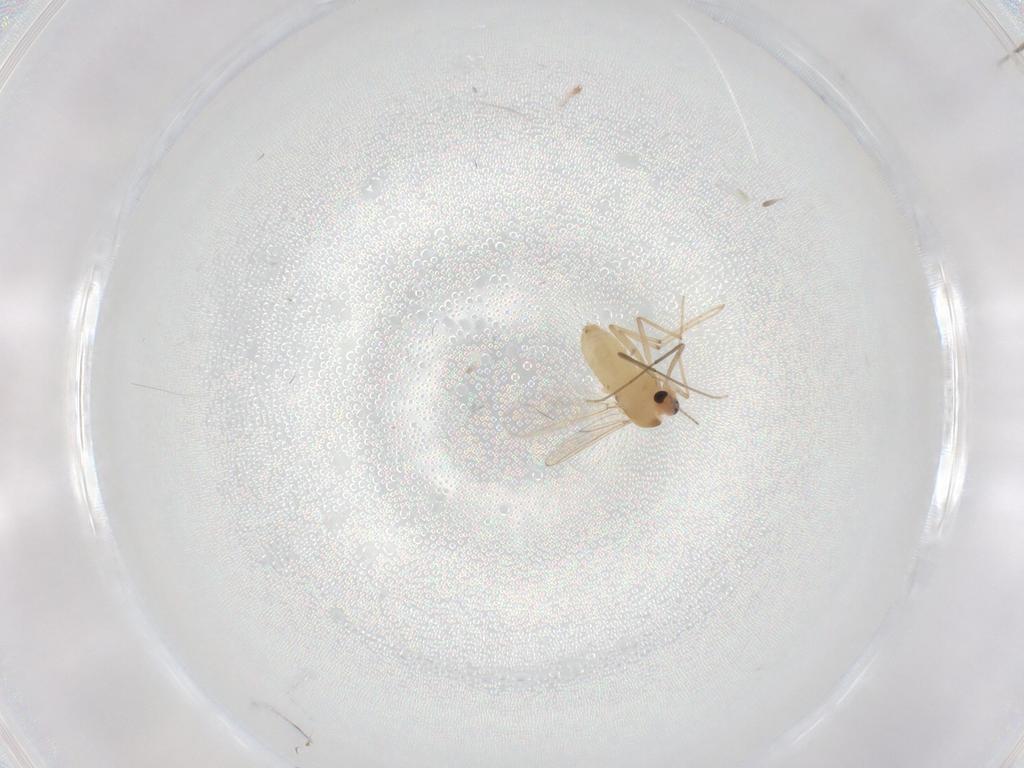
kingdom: Animalia
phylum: Arthropoda
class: Insecta
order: Diptera
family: Chironomidae
